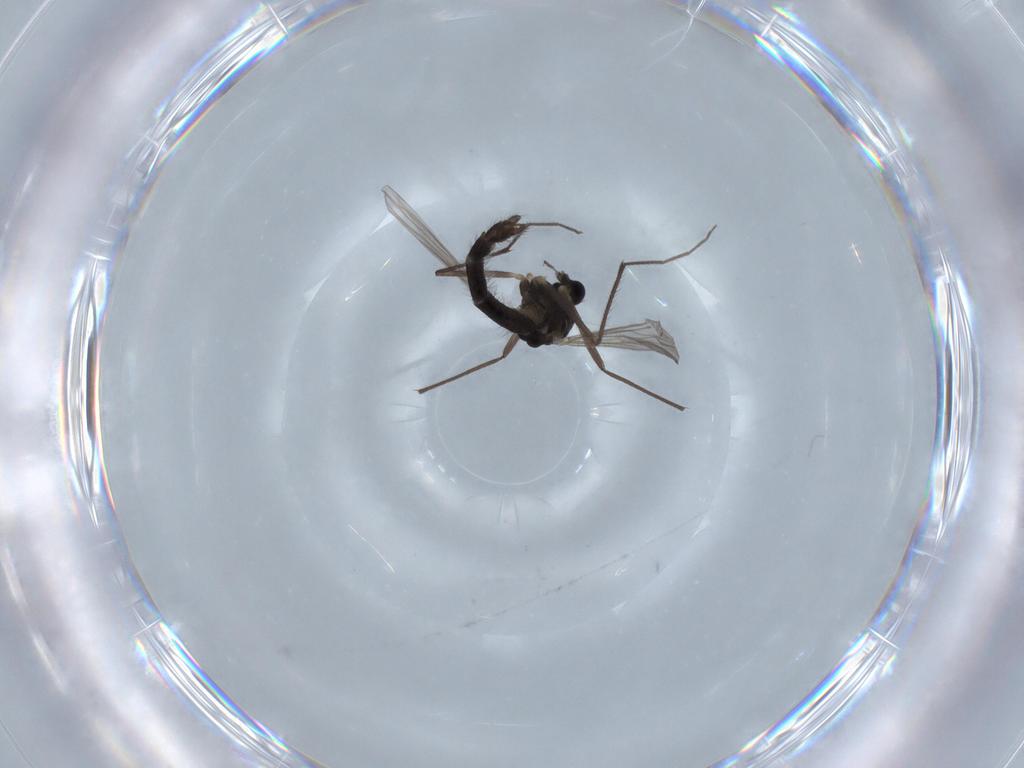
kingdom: Animalia
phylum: Arthropoda
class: Insecta
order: Diptera
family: Chironomidae
